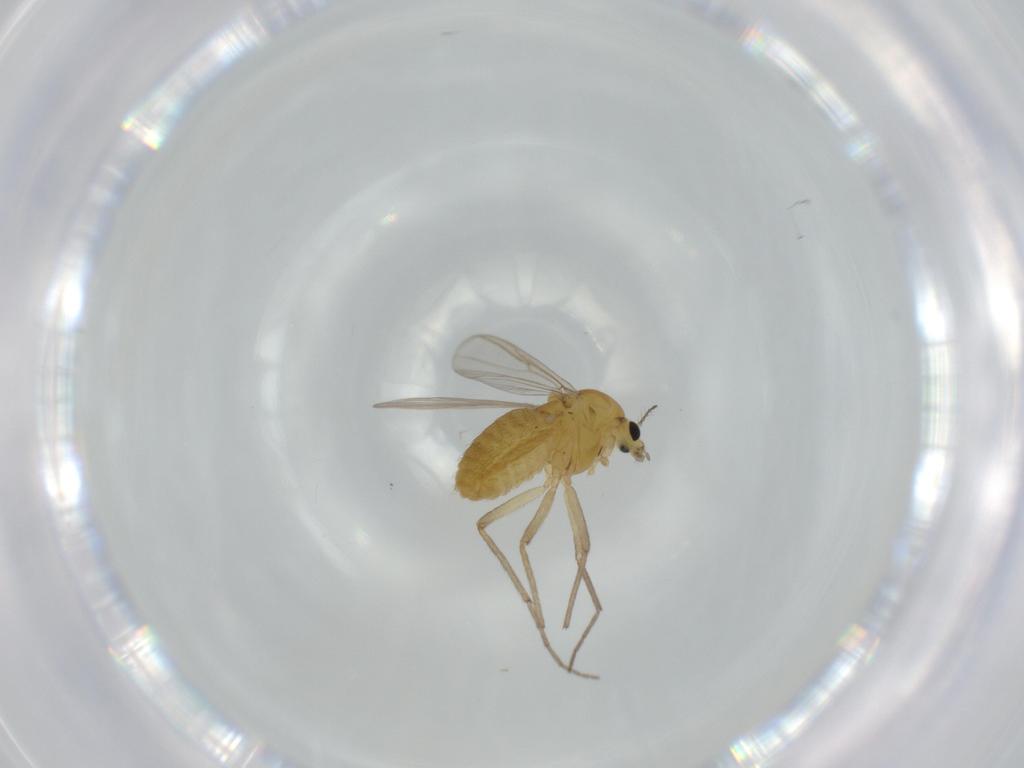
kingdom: Animalia
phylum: Arthropoda
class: Insecta
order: Diptera
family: Chironomidae
